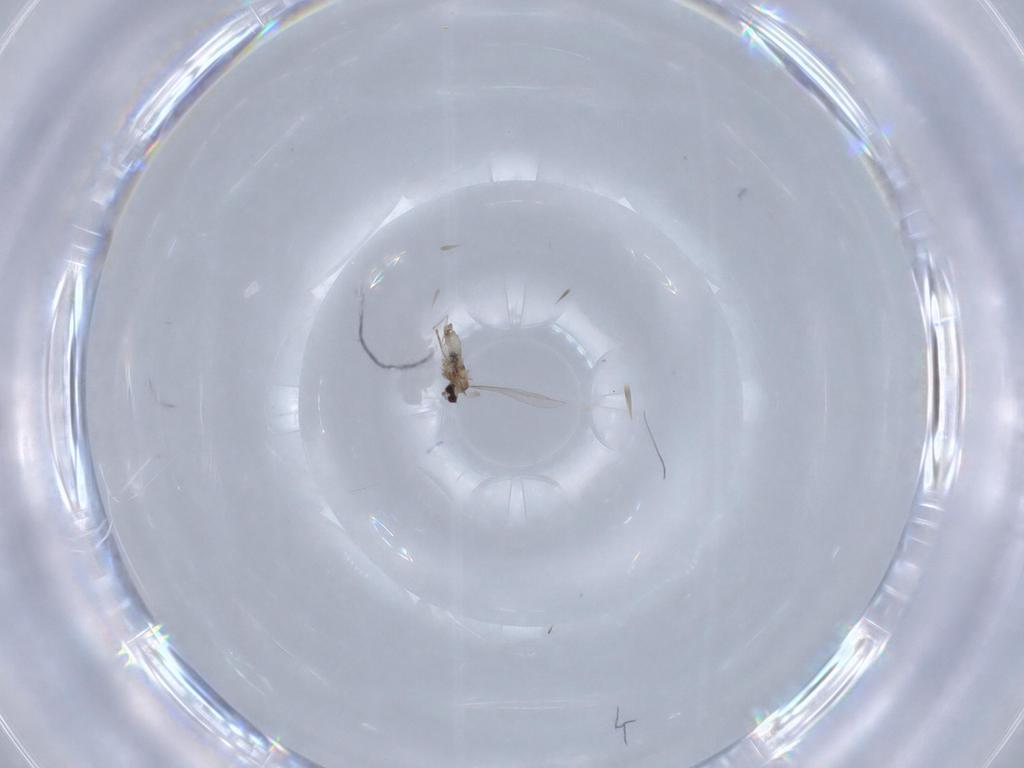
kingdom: Animalia
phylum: Arthropoda
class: Insecta
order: Diptera
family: Cecidomyiidae
